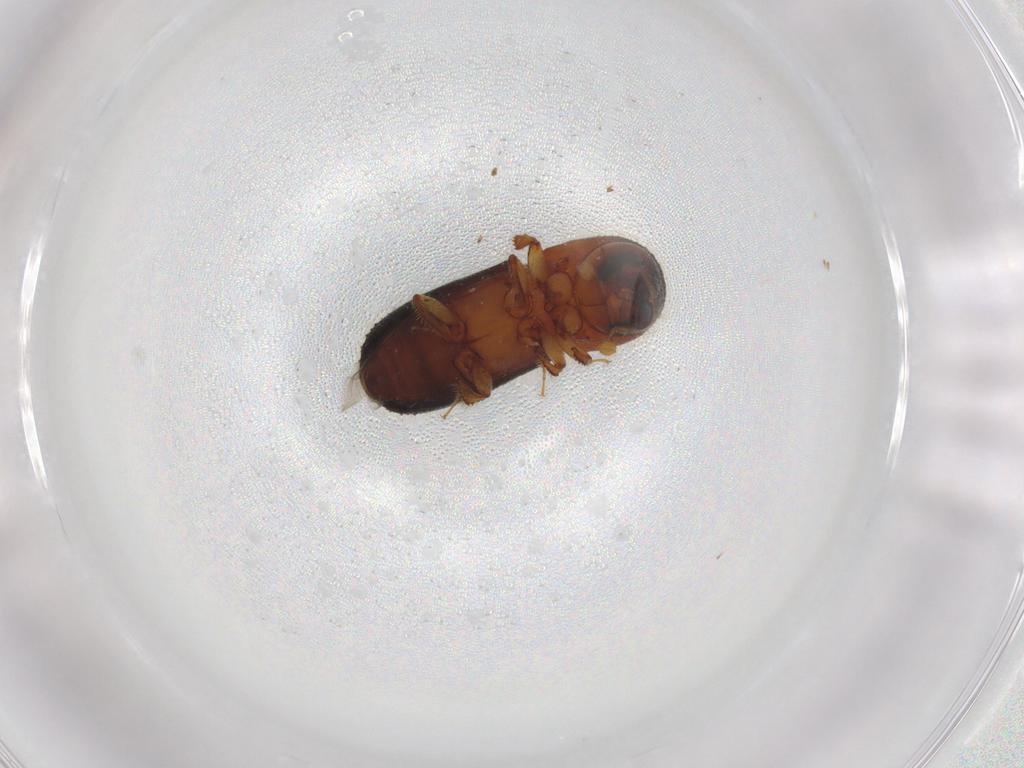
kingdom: Animalia
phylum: Arthropoda
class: Insecta
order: Coleoptera
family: Curculionidae
